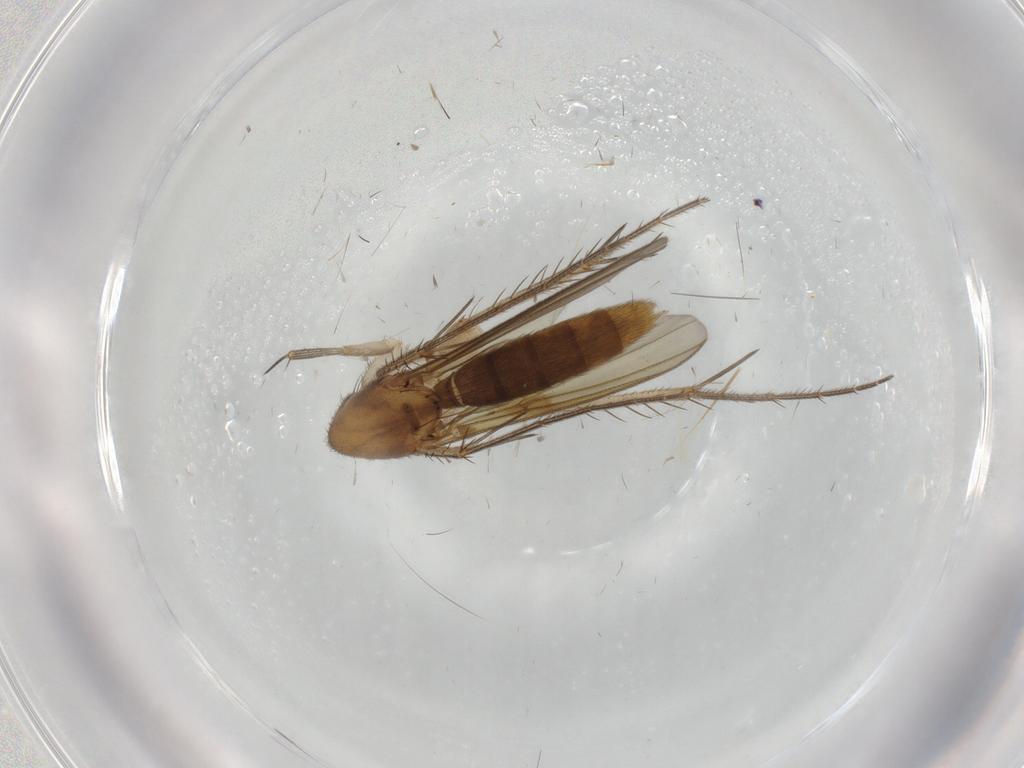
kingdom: Animalia
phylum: Arthropoda
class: Insecta
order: Diptera
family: Mycetophilidae
